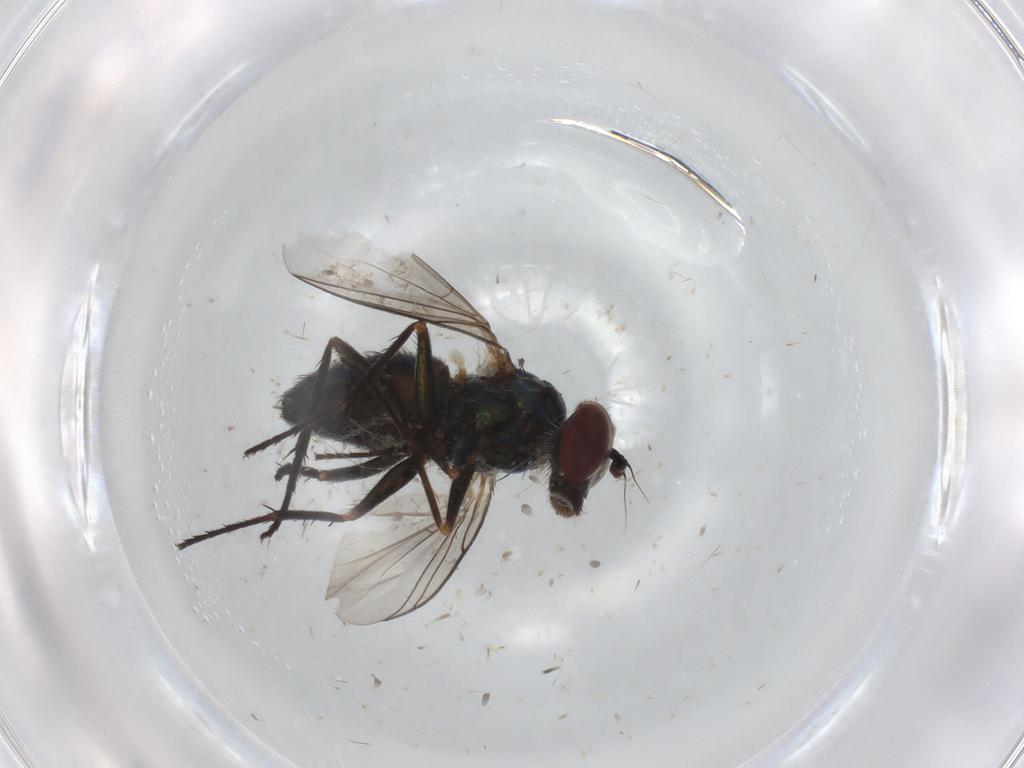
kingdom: Animalia
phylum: Arthropoda
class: Insecta
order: Diptera
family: Dolichopodidae
